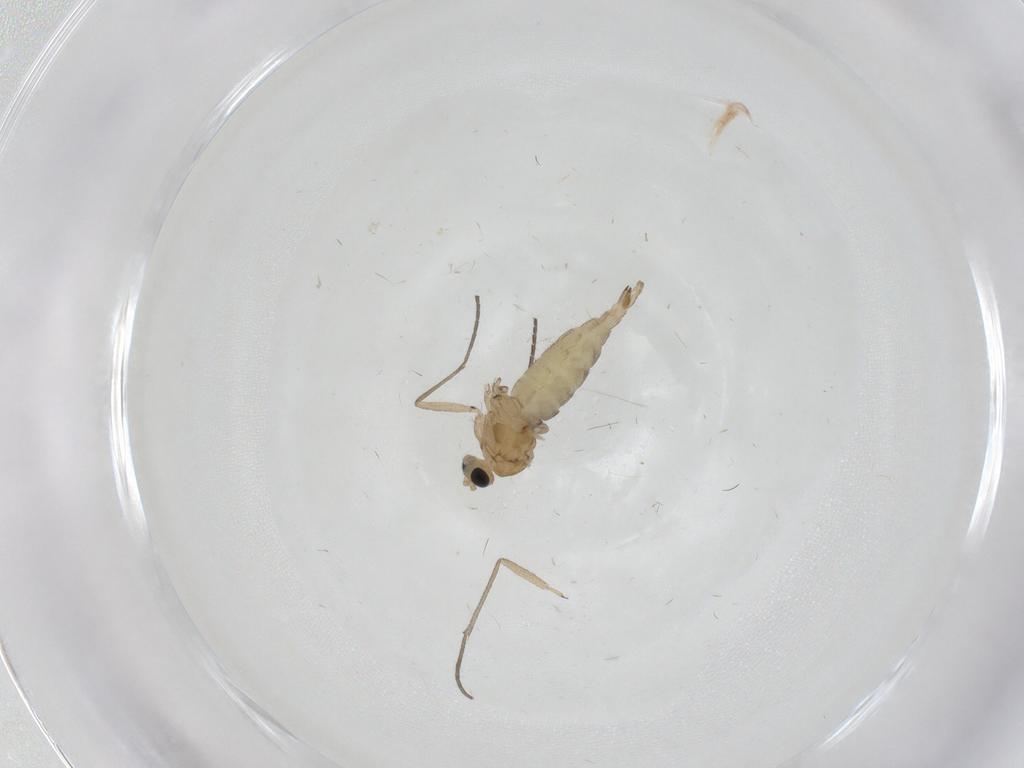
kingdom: Animalia
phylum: Arthropoda
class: Insecta
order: Diptera
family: Sciaridae
